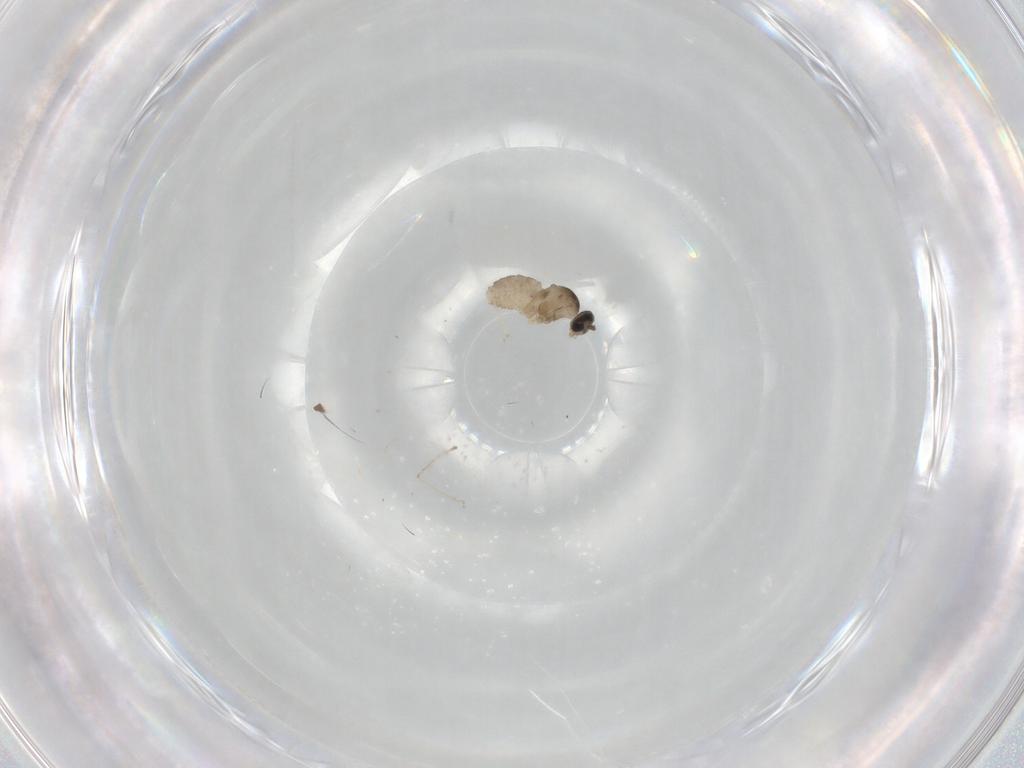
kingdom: Animalia
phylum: Arthropoda
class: Insecta
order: Diptera
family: Cecidomyiidae
